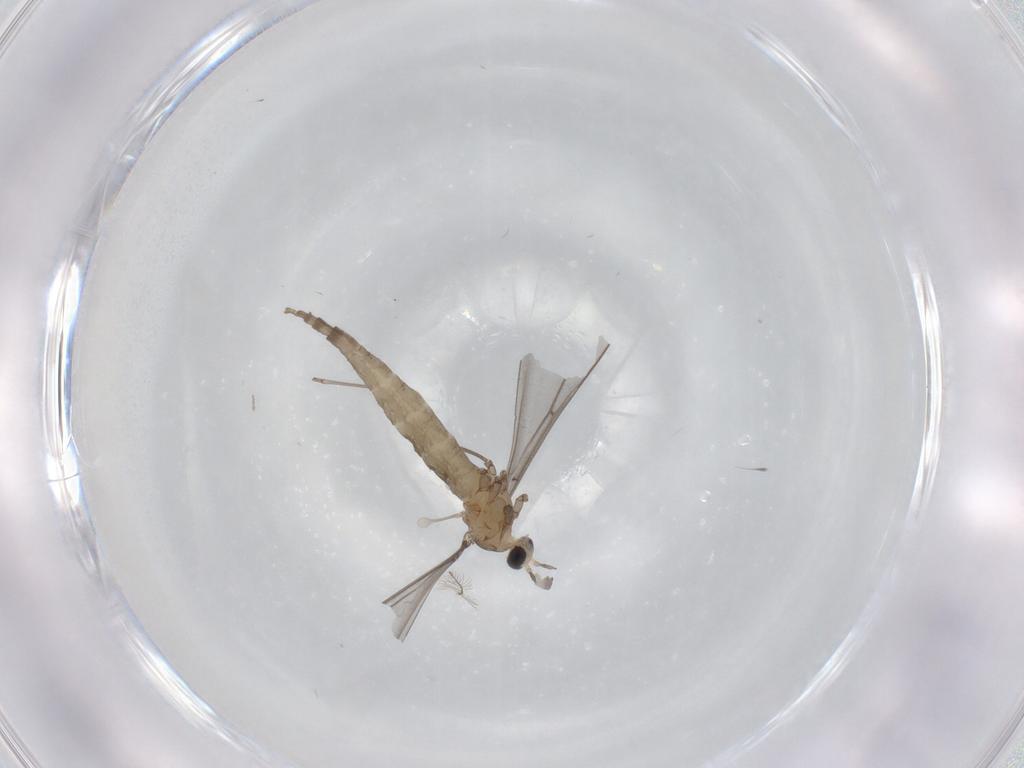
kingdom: Animalia
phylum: Arthropoda
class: Insecta
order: Diptera
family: Cecidomyiidae
